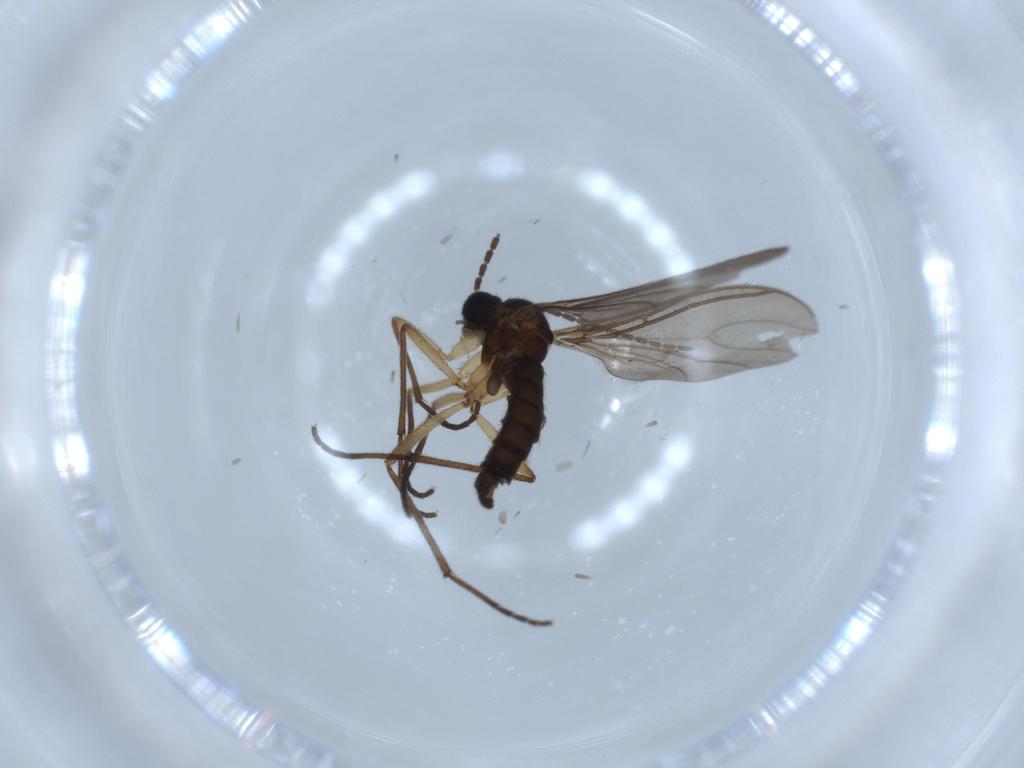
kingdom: Animalia
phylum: Arthropoda
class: Insecta
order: Diptera
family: Sciaridae
